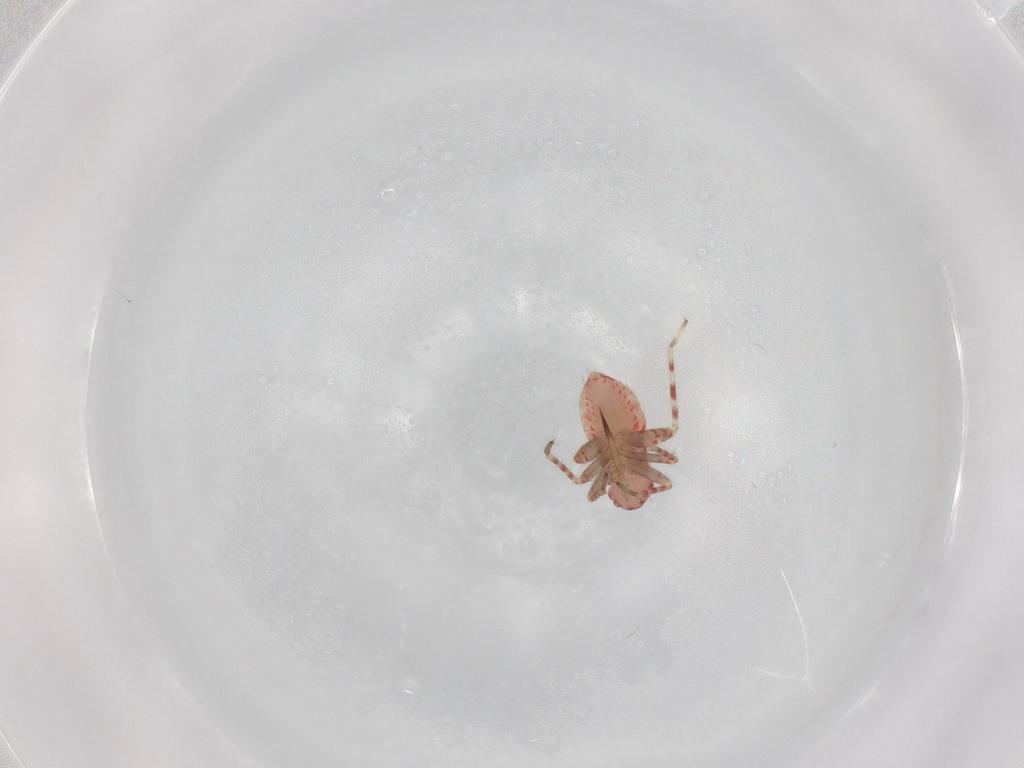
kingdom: Animalia
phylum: Arthropoda
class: Insecta
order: Hemiptera
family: Miridae
